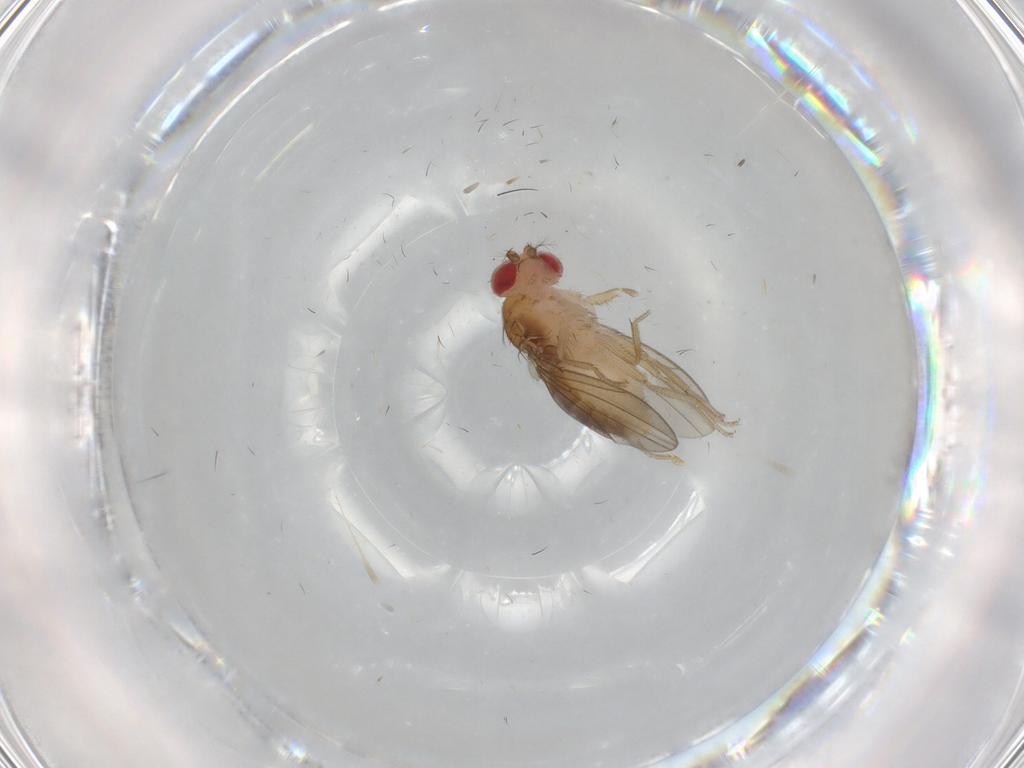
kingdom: Animalia
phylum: Arthropoda
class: Insecta
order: Diptera
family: Drosophilidae
